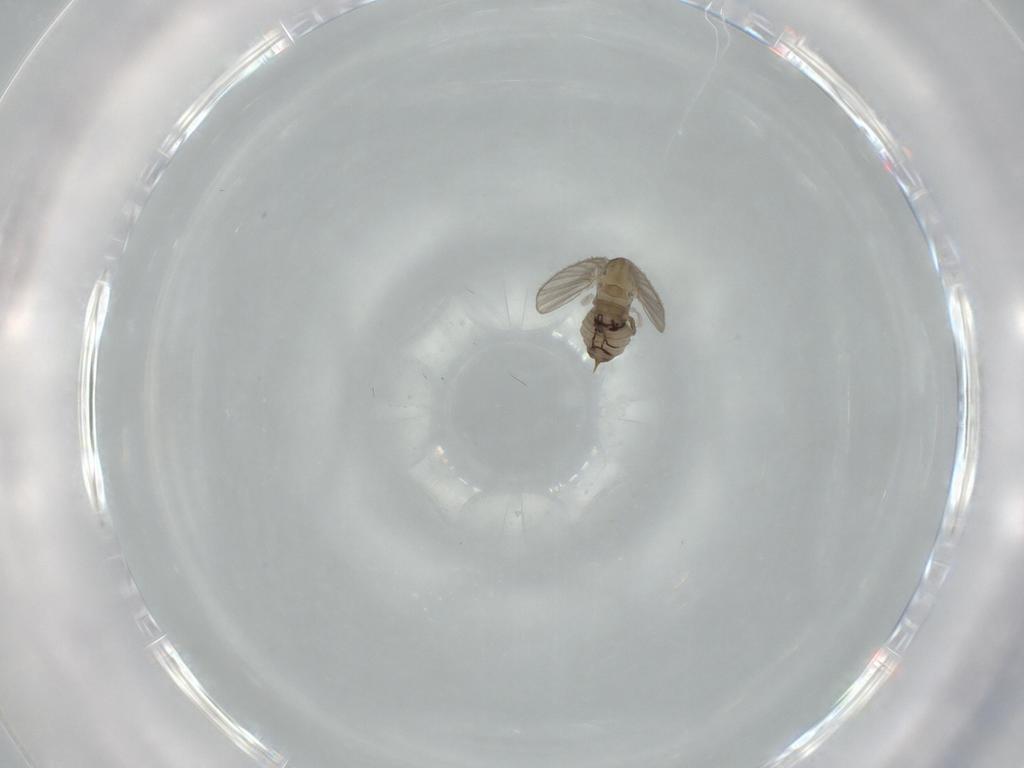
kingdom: Animalia
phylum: Arthropoda
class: Insecta
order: Diptera
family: Psychodidae
